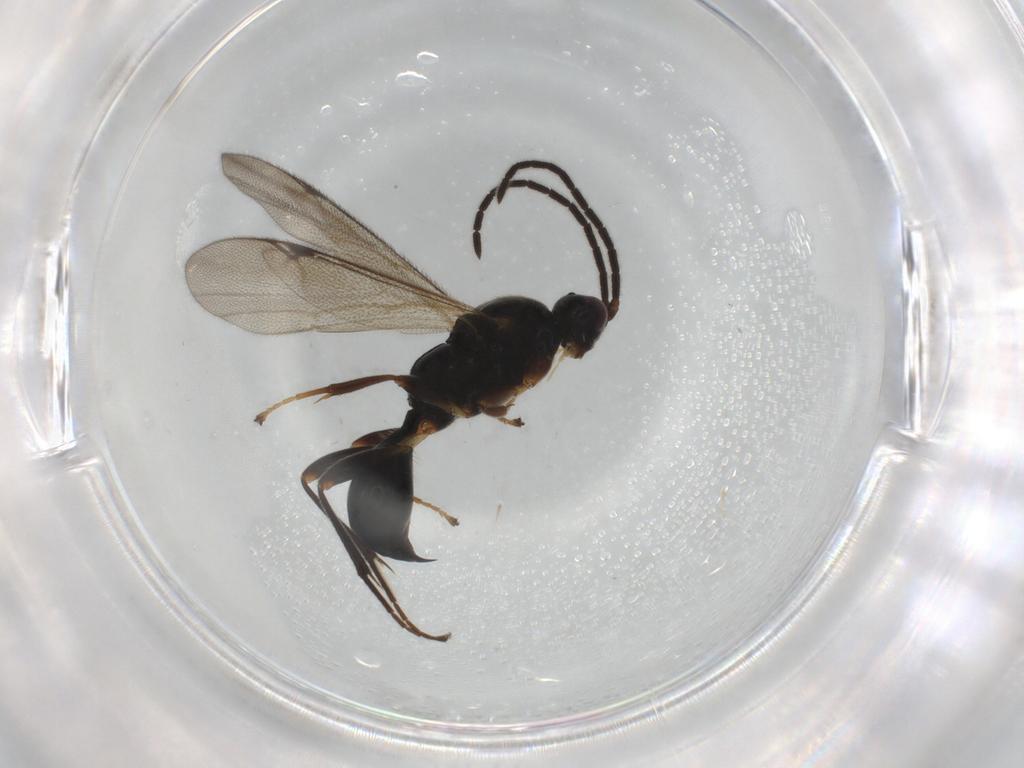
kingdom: Animalia
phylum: Arthropoda
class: Insecta
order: Hymenoptera
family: Proctotrupidae
